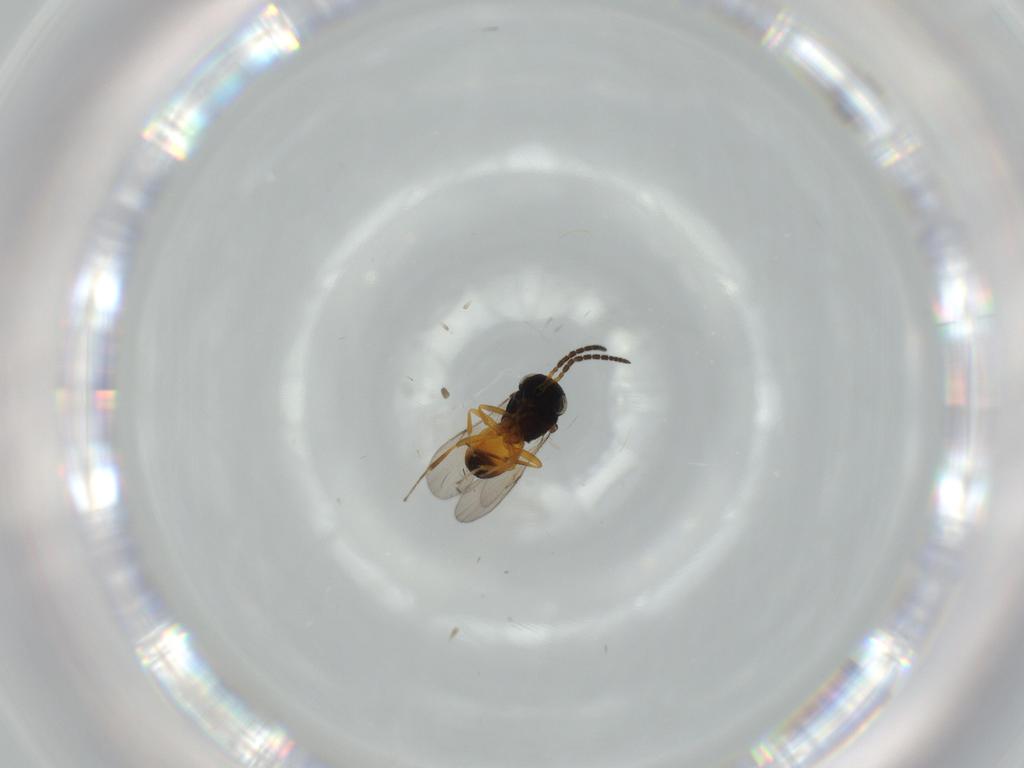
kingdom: Animalia
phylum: Arthropoda
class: Insecta
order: Hymenoptera
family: Scelionidae
